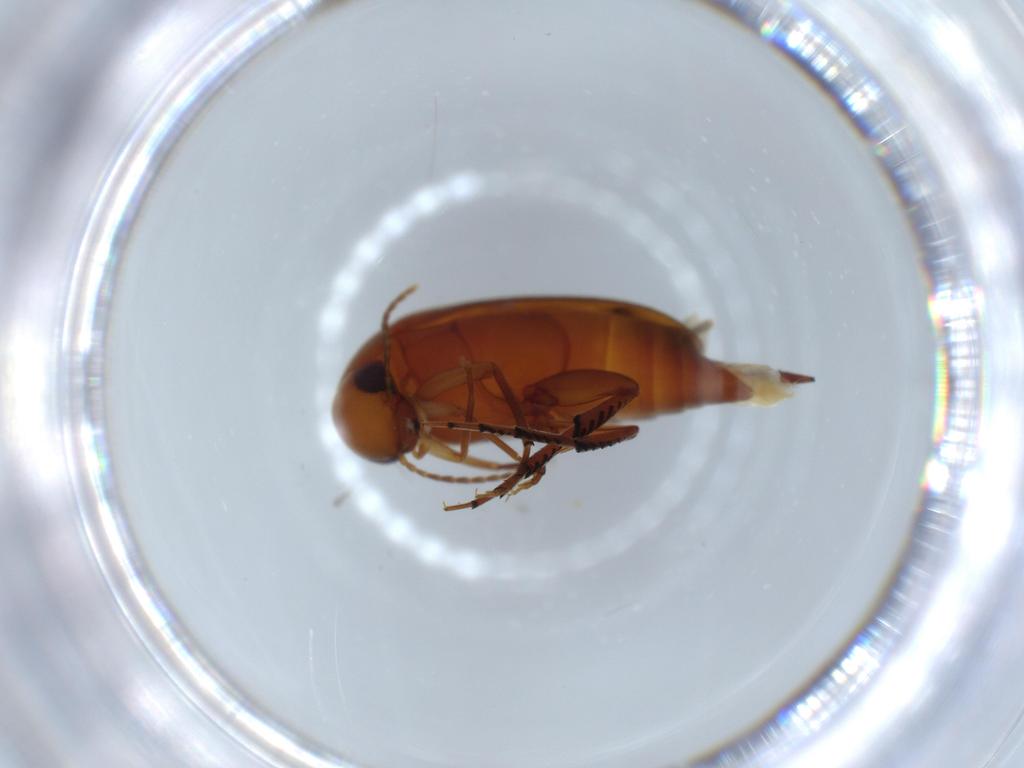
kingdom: Animalia
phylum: Arthropoda
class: Insecta
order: Coleoptera
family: Mordellidae
